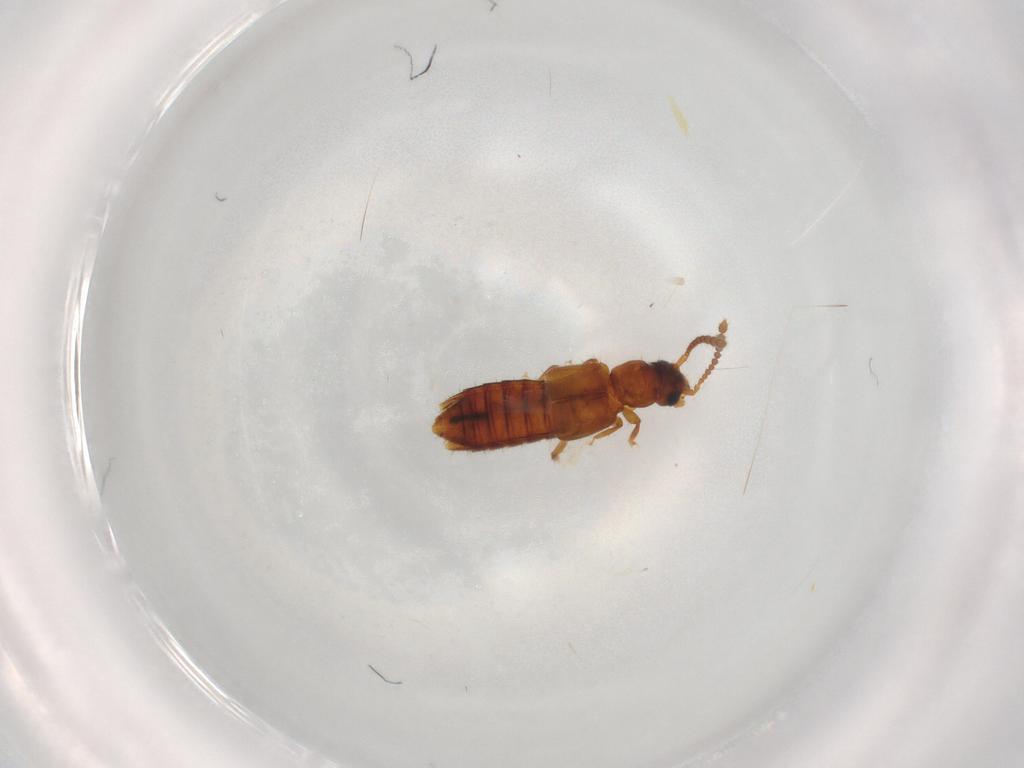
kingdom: Animalia
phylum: Arthropoda
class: Insecta
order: Coleoptera
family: Staphylinidae
